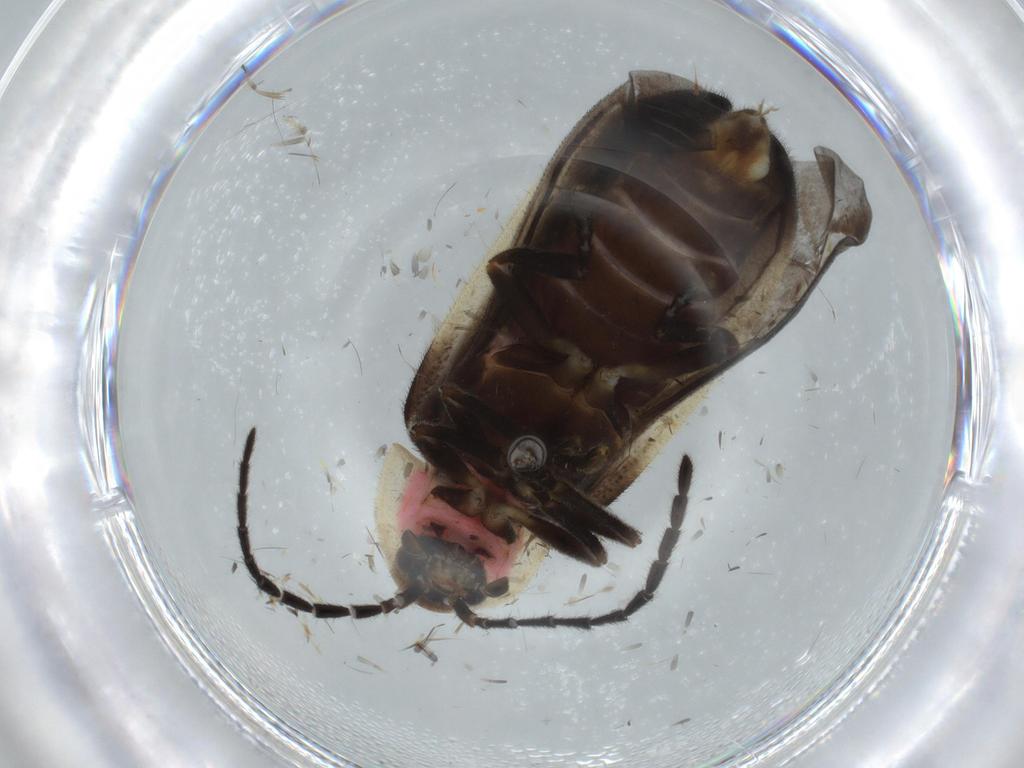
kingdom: Animalia
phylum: Arthropoda
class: Insecta
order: Coleoptera
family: Lampyridae
